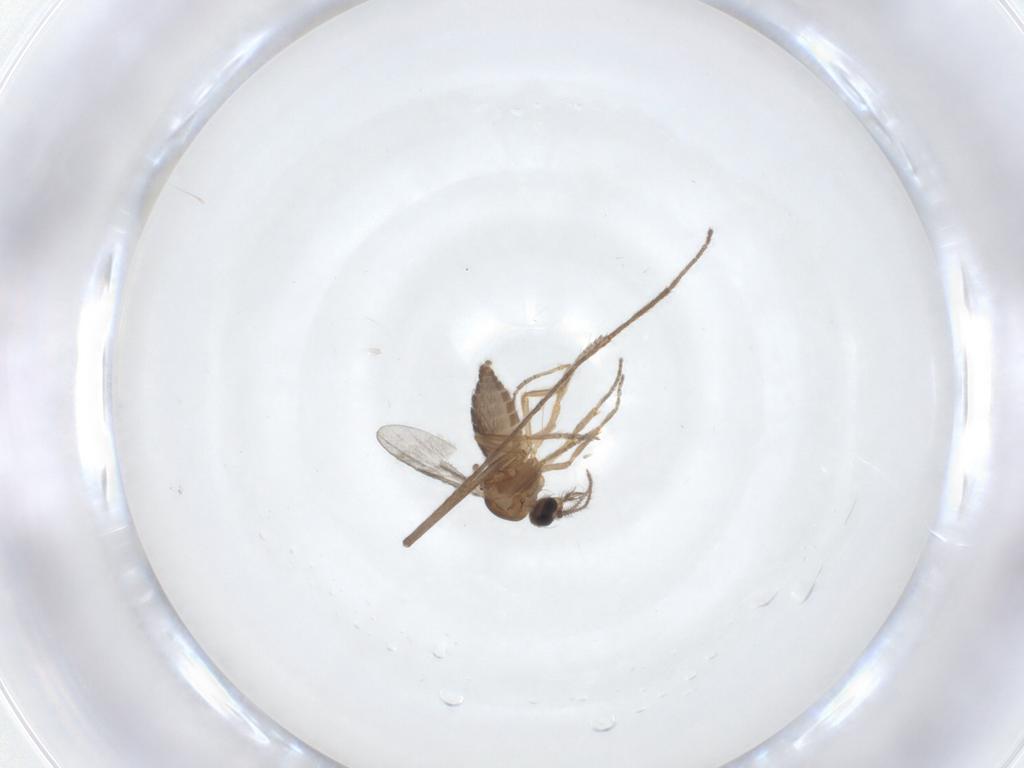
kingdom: Animalia
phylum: Arthropoda
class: Insecta
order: Diptera
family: Ceratopogonidae
